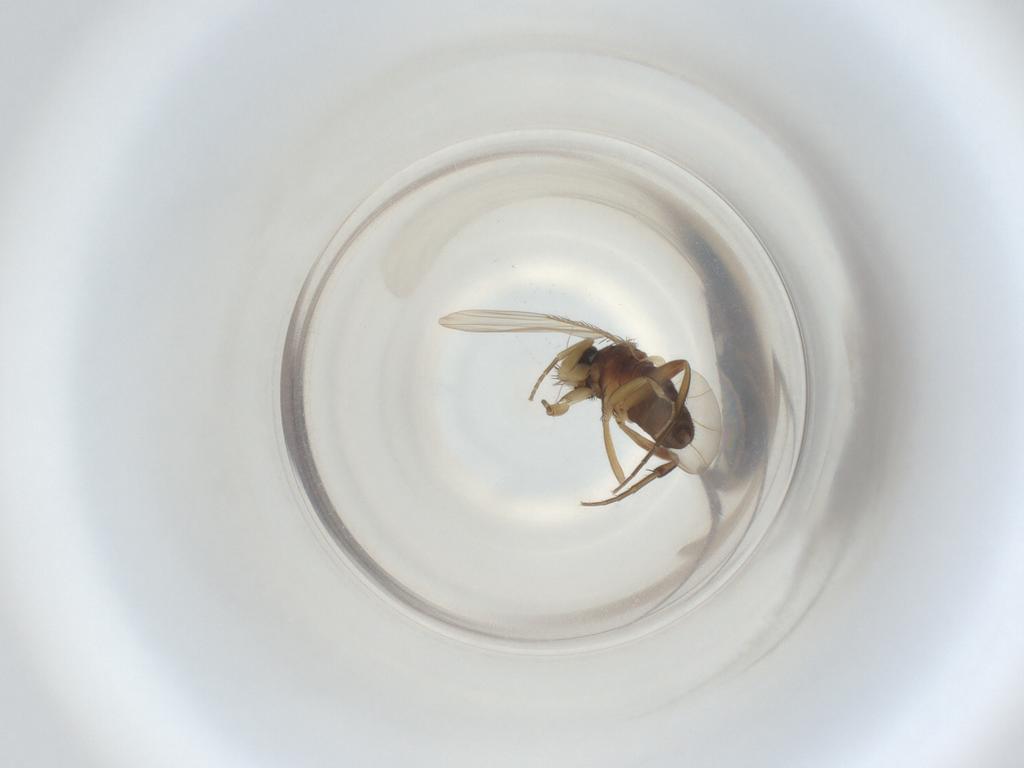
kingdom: Animalia
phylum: Arthropoda
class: Insecta
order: Diptera
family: Phoridae
